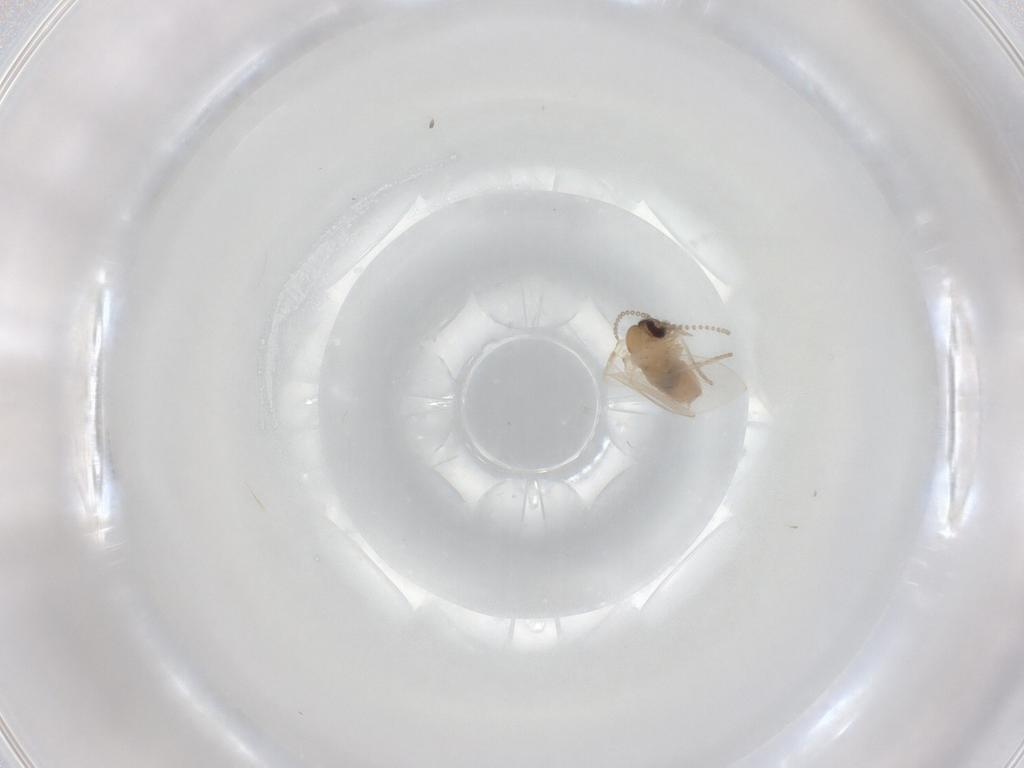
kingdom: Animalia
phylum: Arthropoda
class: Insecta
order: Diptera
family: Psychodidae
